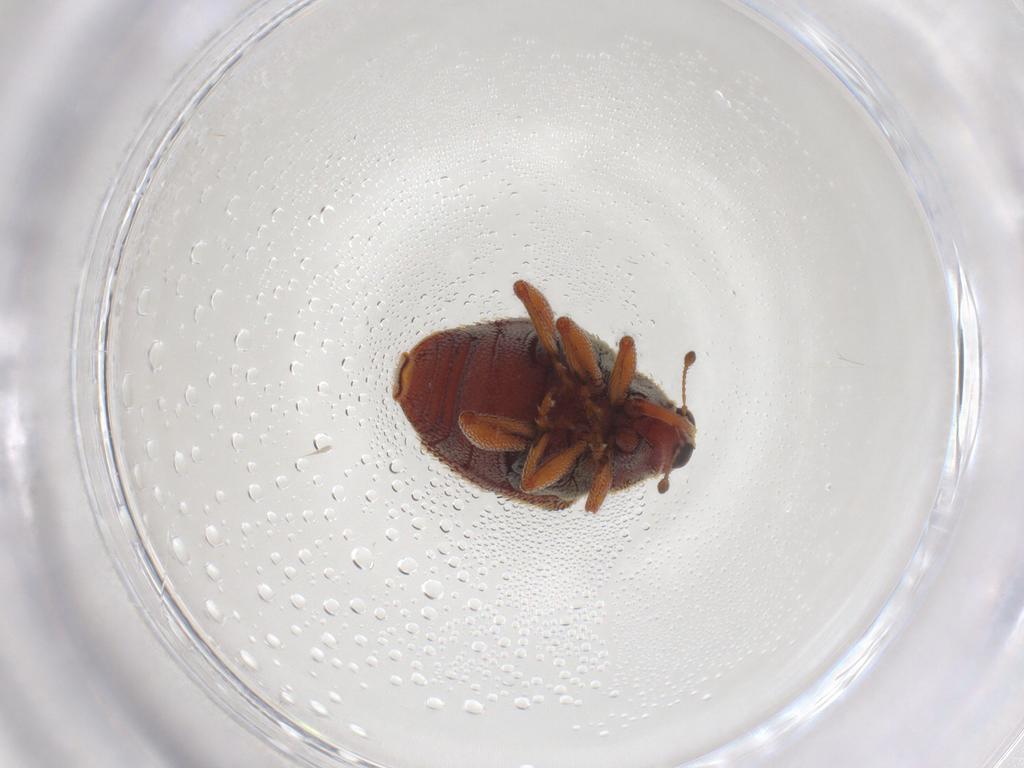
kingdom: Animalia
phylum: Arthropoda
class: Insecta
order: Coleoptera
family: Curculionidae
